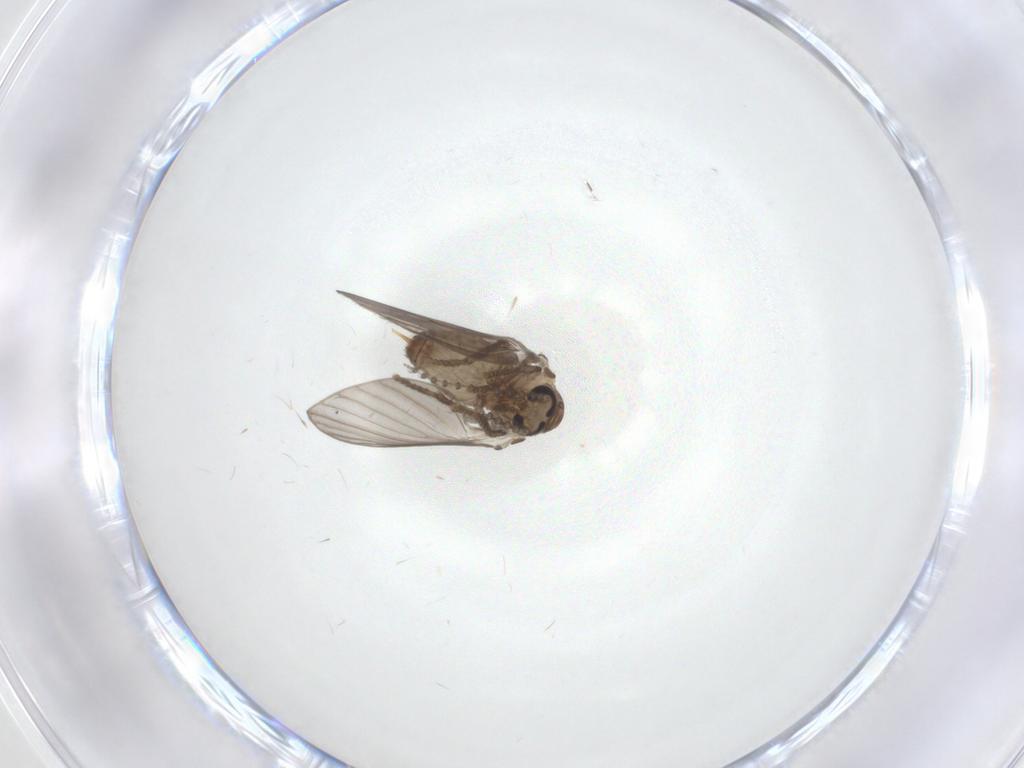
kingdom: Animalia
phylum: Arthropoda
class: Insecta
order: Diptera
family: Psychodidae
